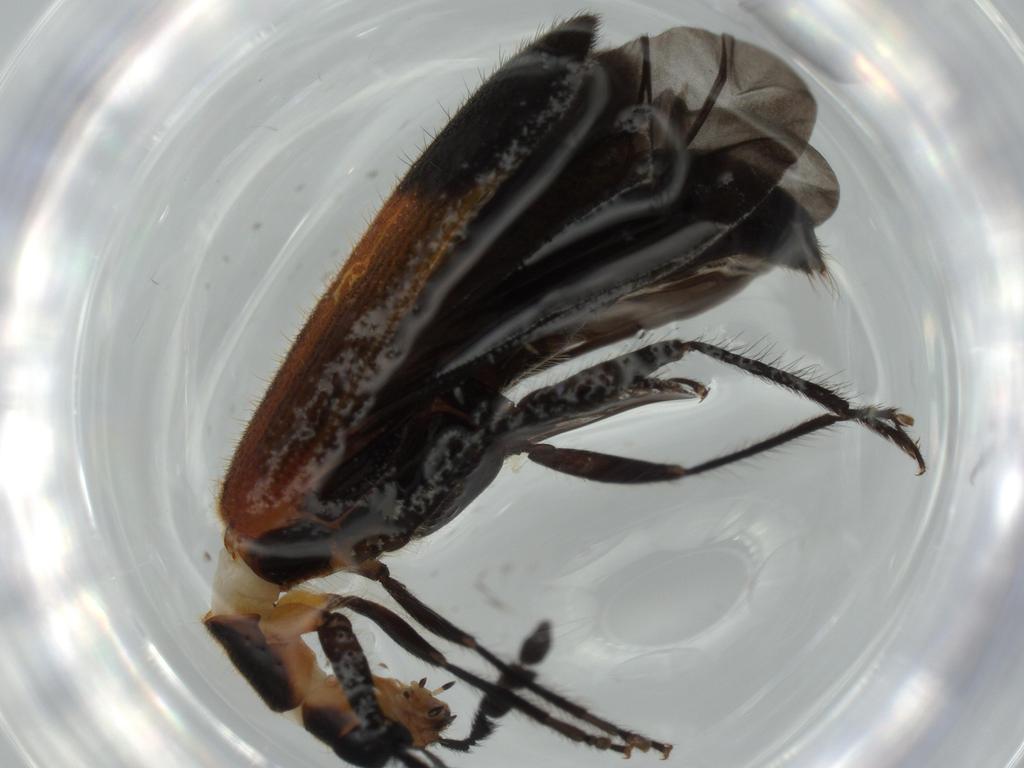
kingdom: Animalia
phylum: Arthropoda
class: Insecta
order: Coleoptera
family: Cleridae
